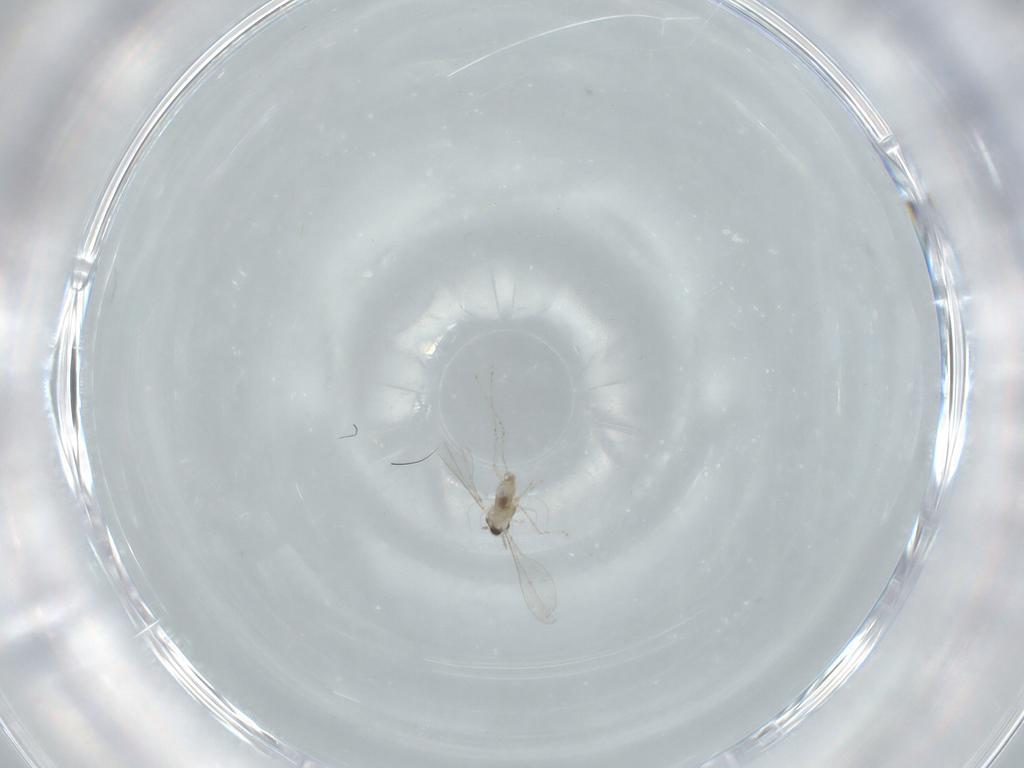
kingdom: Animalia
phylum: Arthropoda
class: Insecta
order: Diptera
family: Cecidomyiidae
